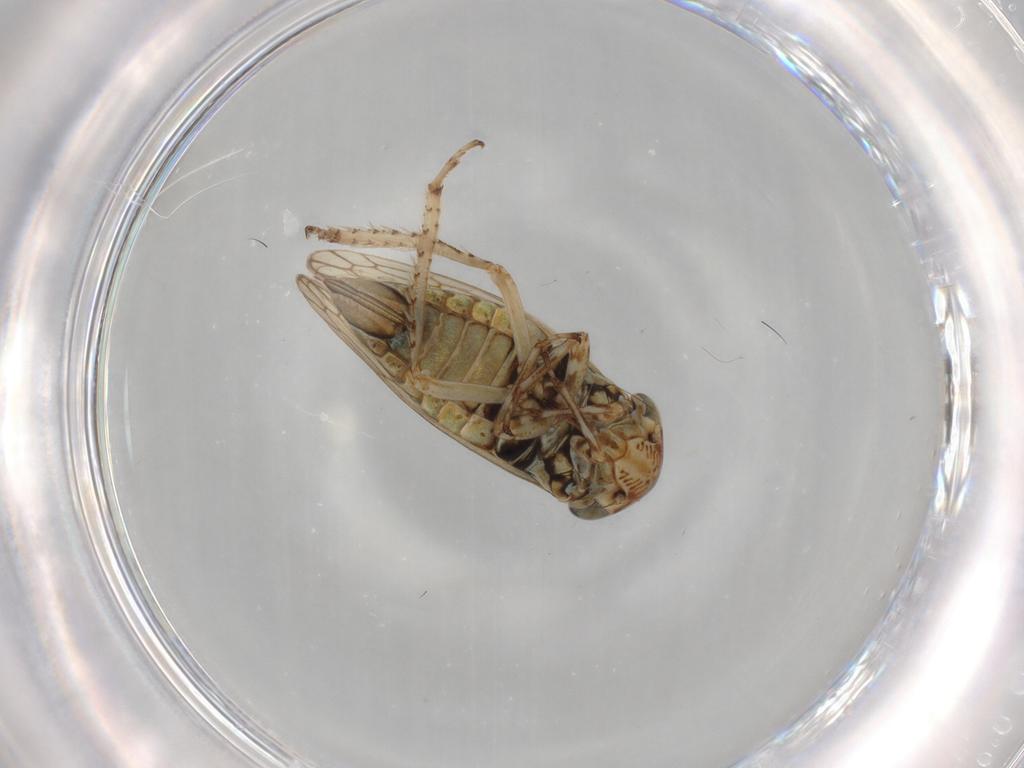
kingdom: Animalia
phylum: Arthropoda
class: Insecta
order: Hemiptera
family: Cicadellidae
